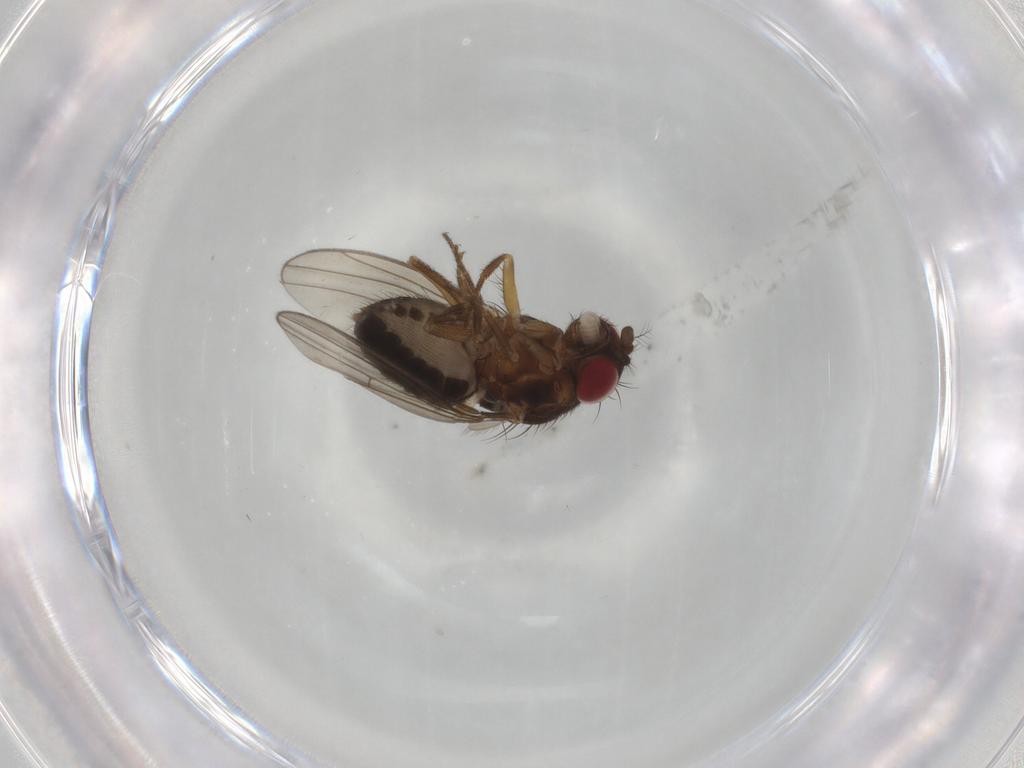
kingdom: Animalia
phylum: Arthropoda
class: Insecta
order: Diptera
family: Drosophilidae
